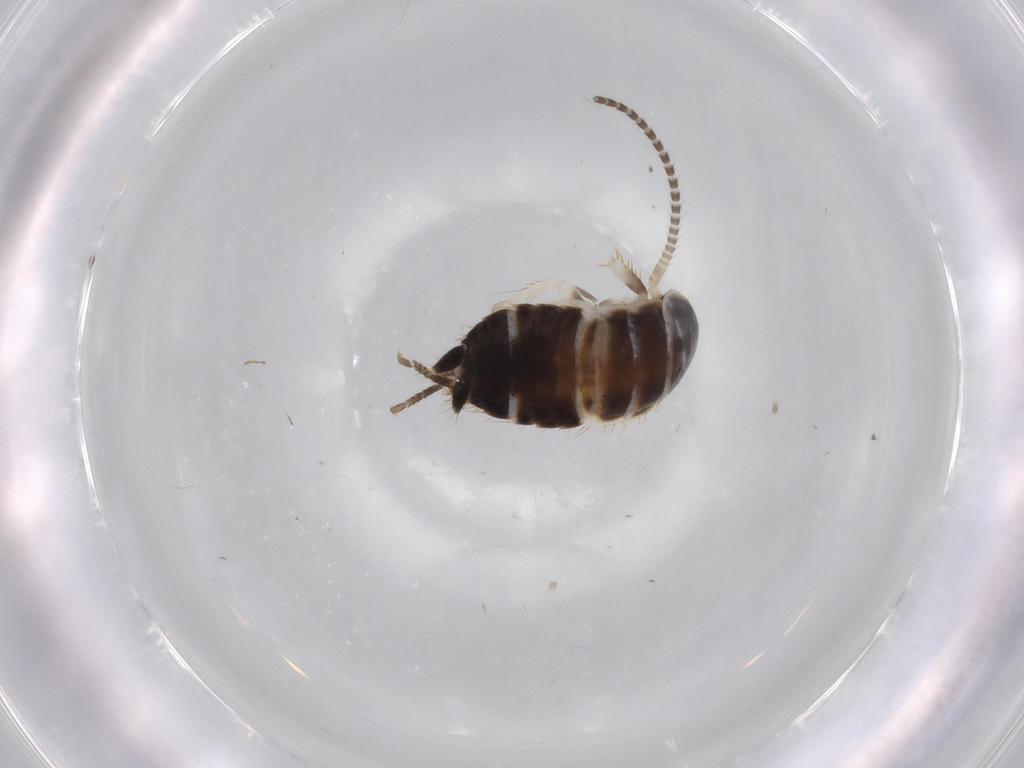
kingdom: Animalia
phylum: Arthropoda
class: Insecta
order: Blattodea
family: Ectobiidae
